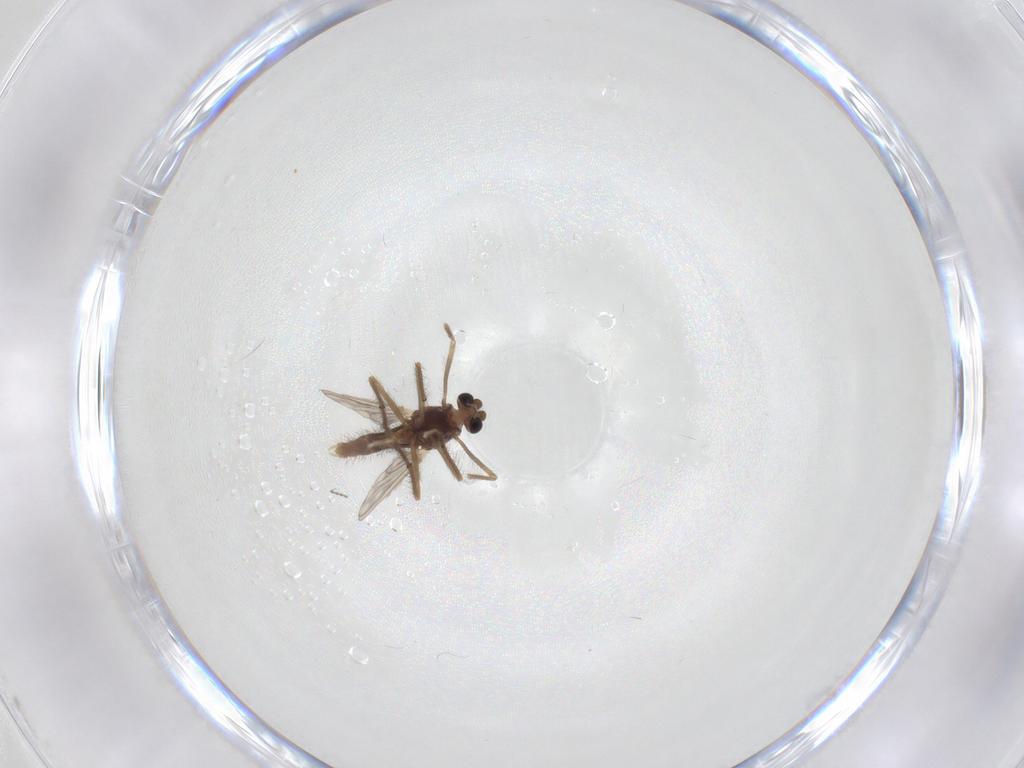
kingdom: Animalia
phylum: Arthropoda
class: Insecta
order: Diptera
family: Chironomidae
